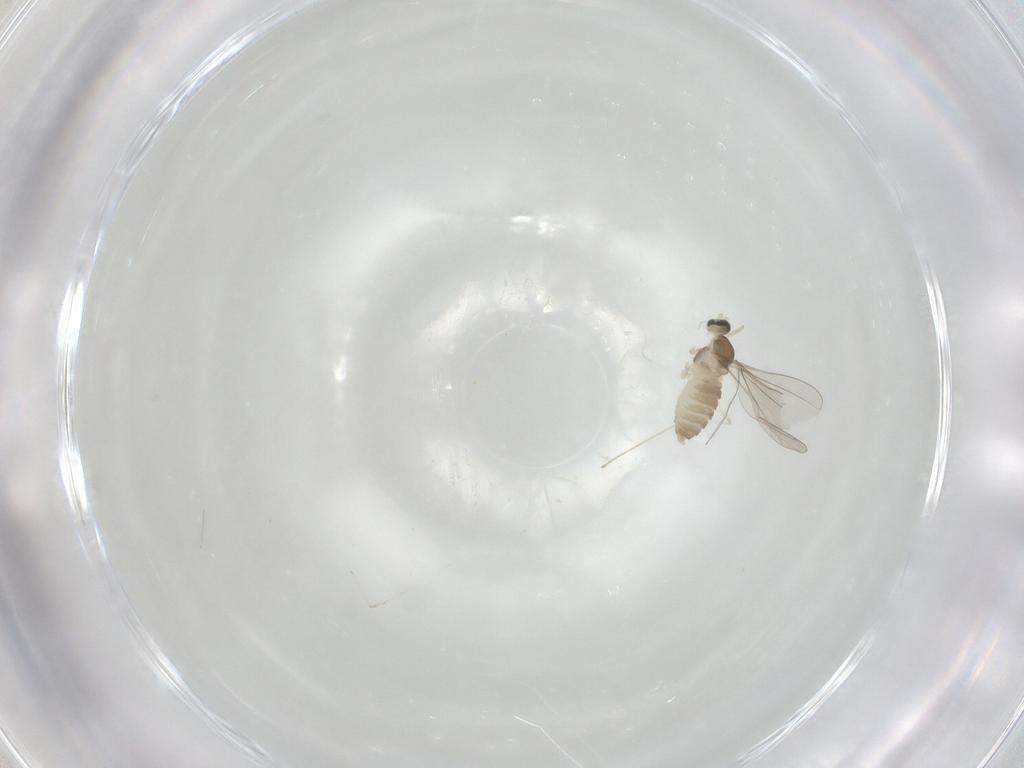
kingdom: Animalia
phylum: Arthropoda
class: Insecta
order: Diptera
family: Cecidomyiidae
